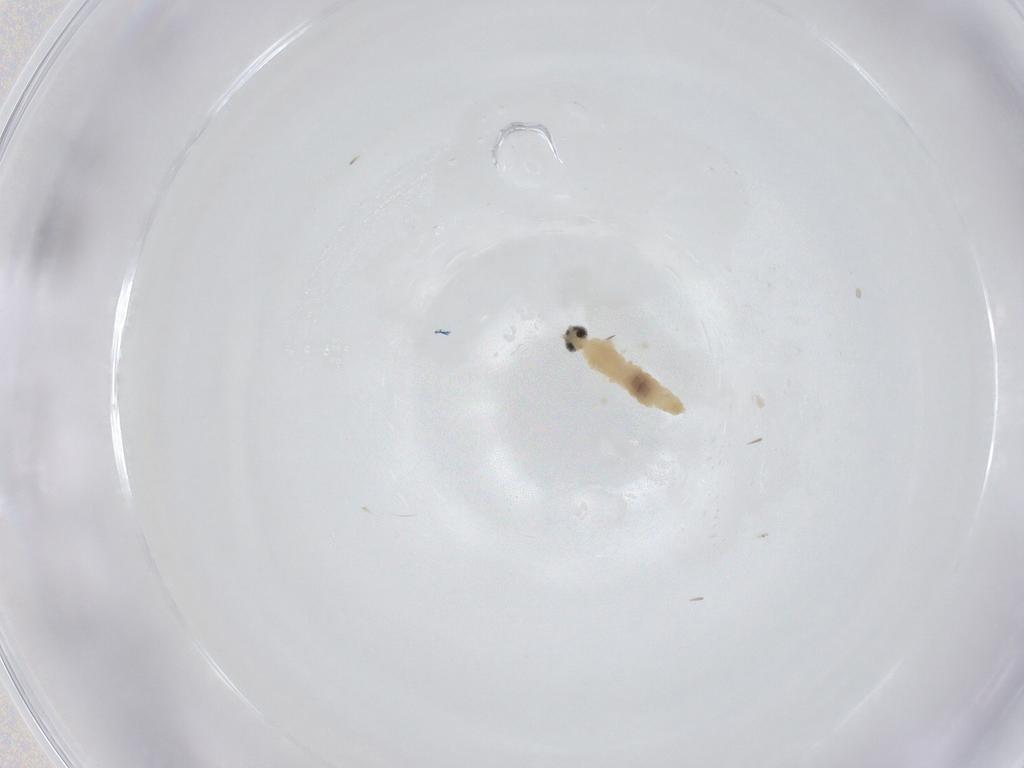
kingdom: Animalia
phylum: Arthropoda
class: Insecta
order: Diptera
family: Cecidomyiidae
